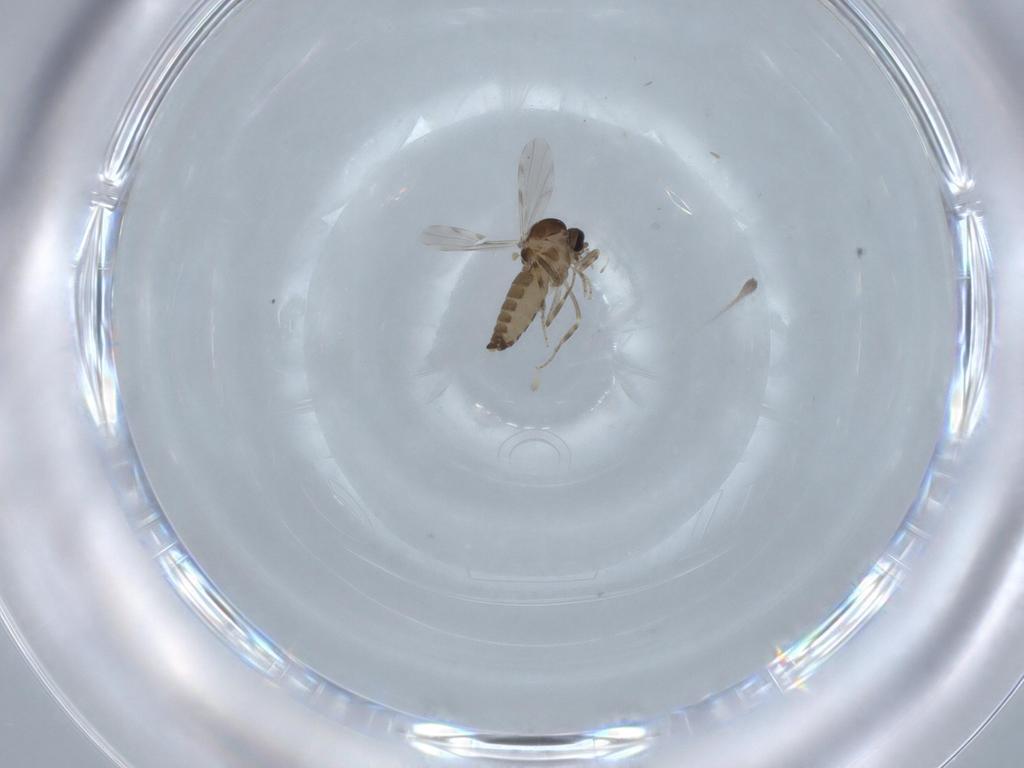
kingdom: Animalia
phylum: Arthropoda
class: Insecta
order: Diptera
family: Ceratopogonidae
